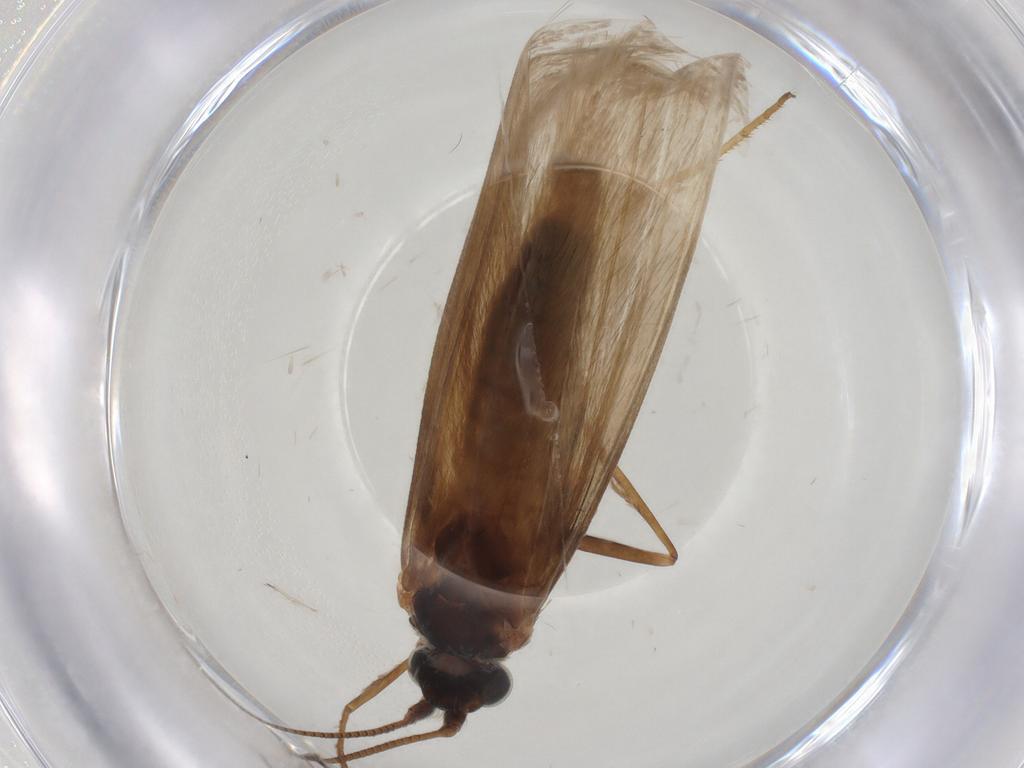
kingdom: Animalia
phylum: Arthropoda
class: Insecta
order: Lepidoptera
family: Adelidae
